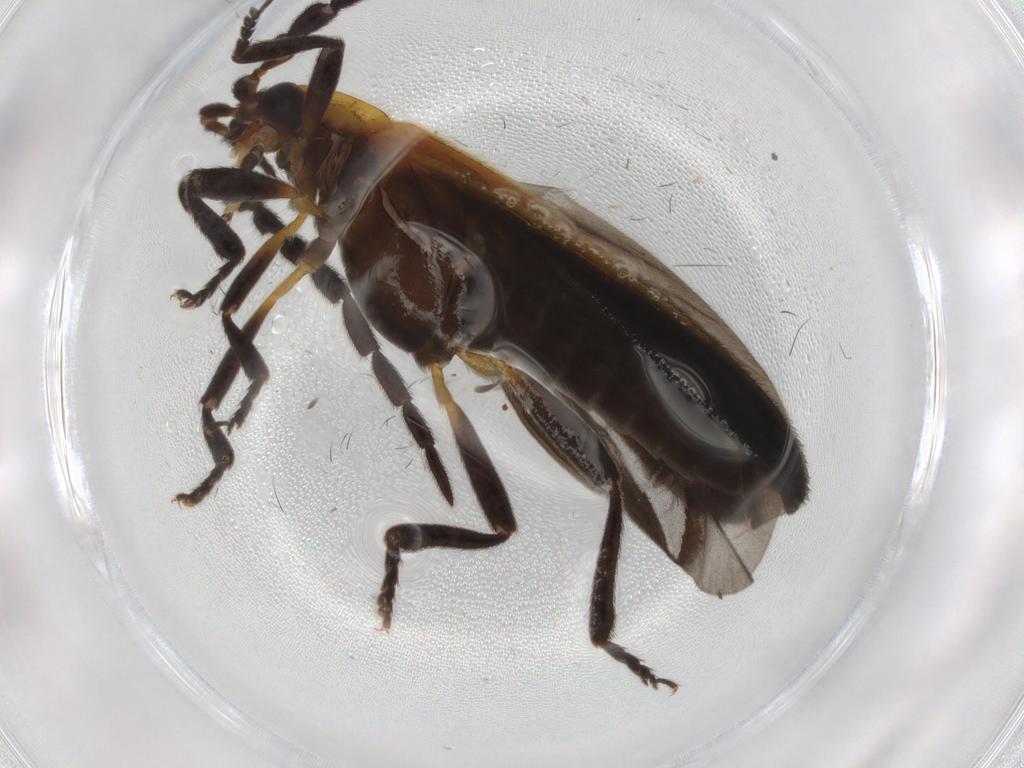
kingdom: Animalia
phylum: Arthropoda
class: Insecta
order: Coleoptera
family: Lycidae
